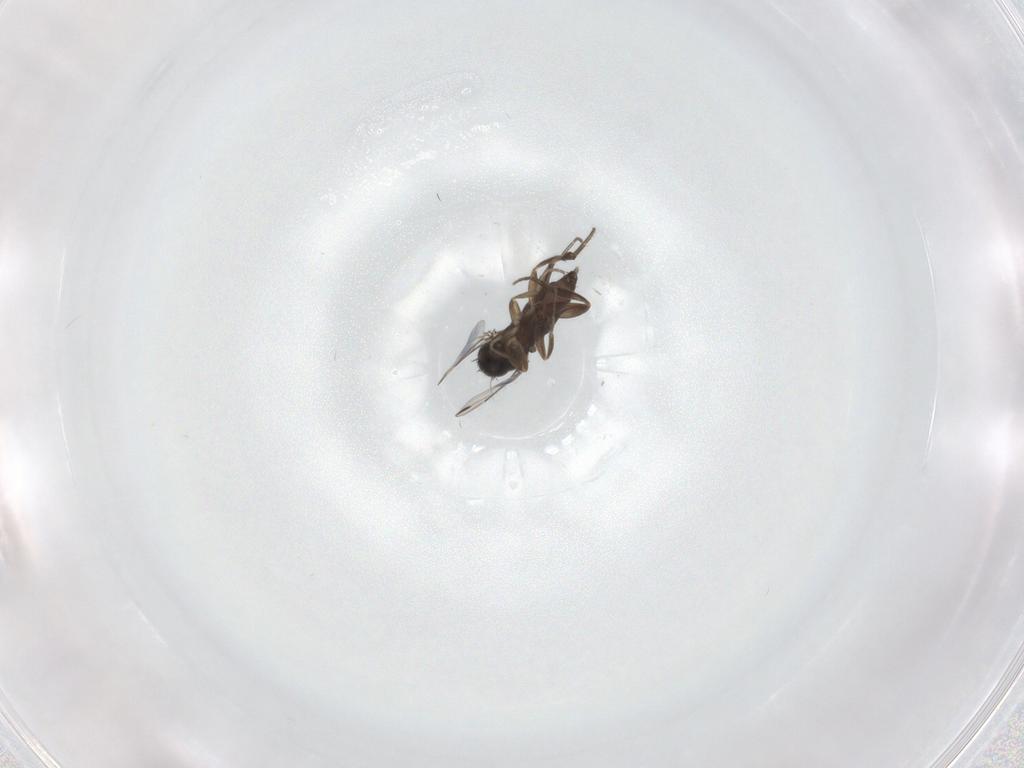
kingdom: Animalia
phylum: Arthropoda
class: Insecta
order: Diptera
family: Phoridae
